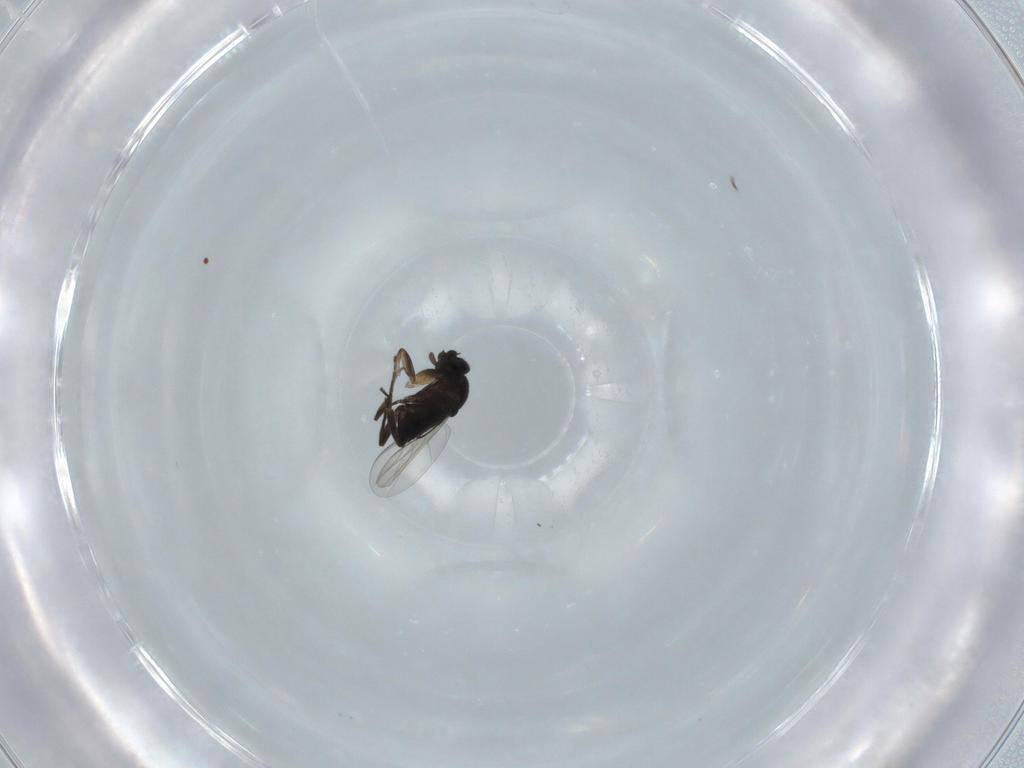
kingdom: Animalia
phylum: Arthropoda
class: Insecta
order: Diptera
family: Phoridae
